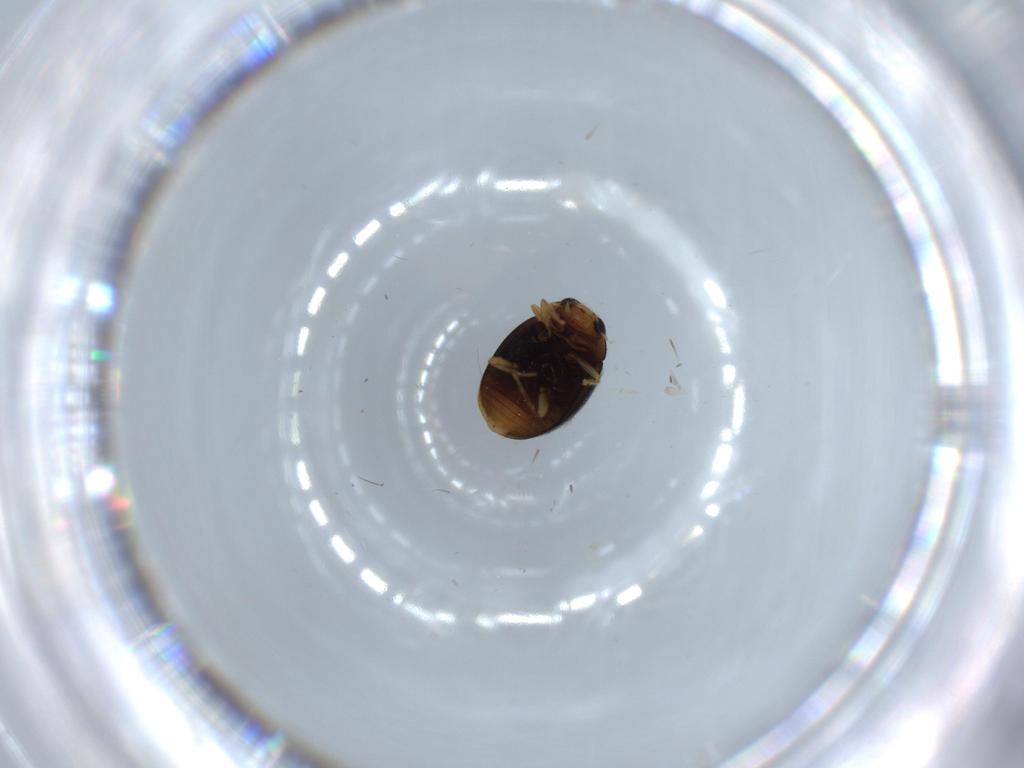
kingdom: Animalia
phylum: Arthropoda
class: Insecta
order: Coleoptera
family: Coccinellidae
